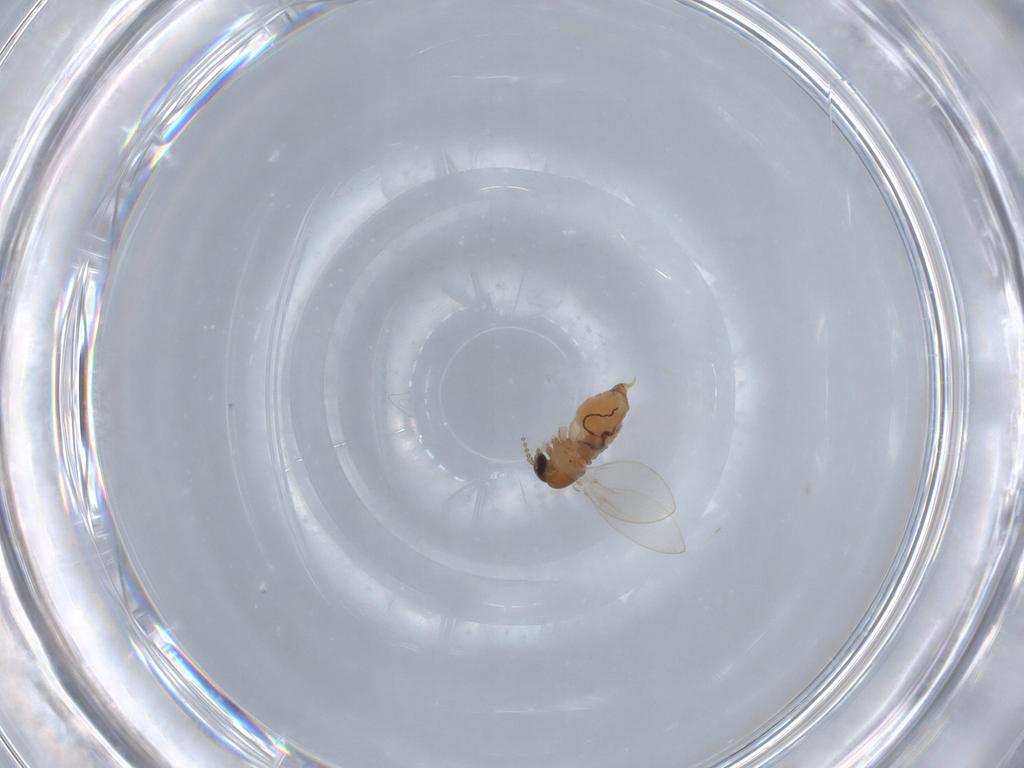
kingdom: Animalia
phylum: Arthropoda
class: Insecta
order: Diptera
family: Psychodidae
